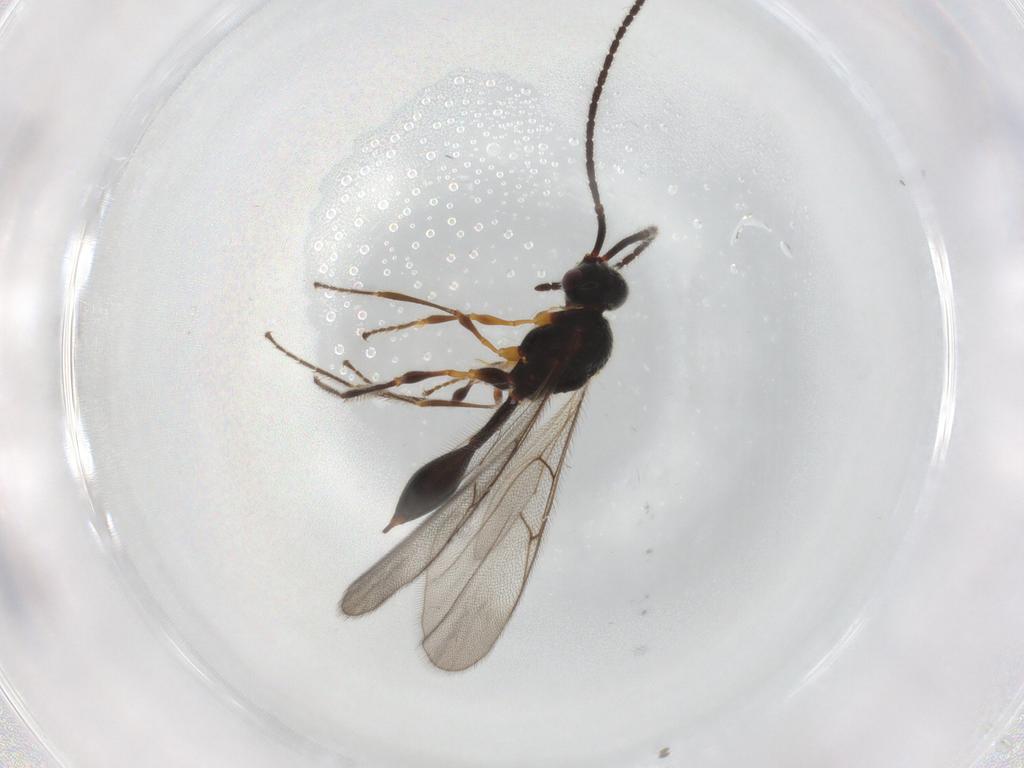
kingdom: Animalia
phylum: Arthropoda
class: Insecta
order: Hymenoptera
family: Diapriidae
